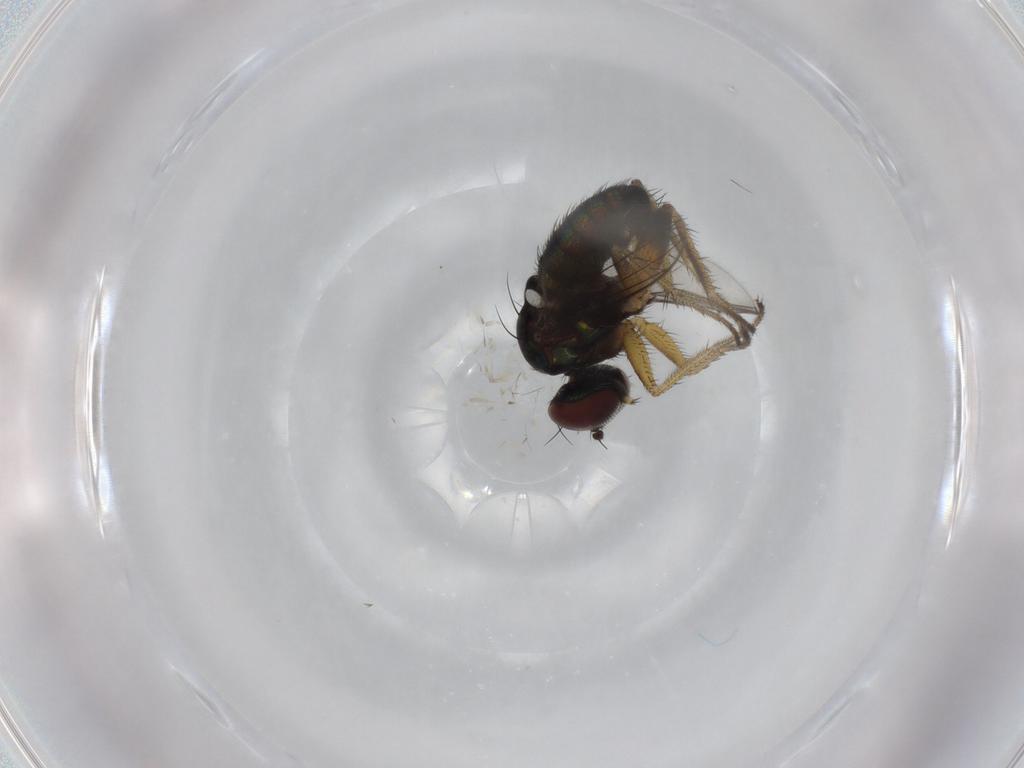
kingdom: Animalia
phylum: Arthropoda
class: Insecta
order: Diptera
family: Dolichopodidae
